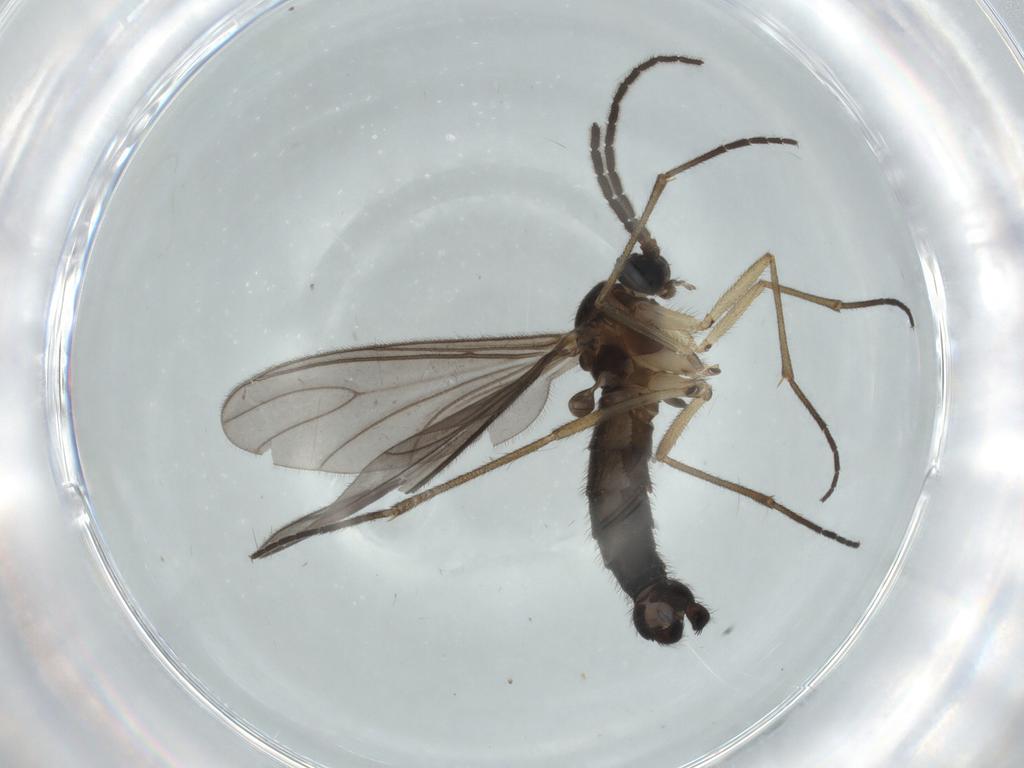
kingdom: Animalia
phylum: Arthropoda
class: Insecta
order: Diptera
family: Sciaridae
